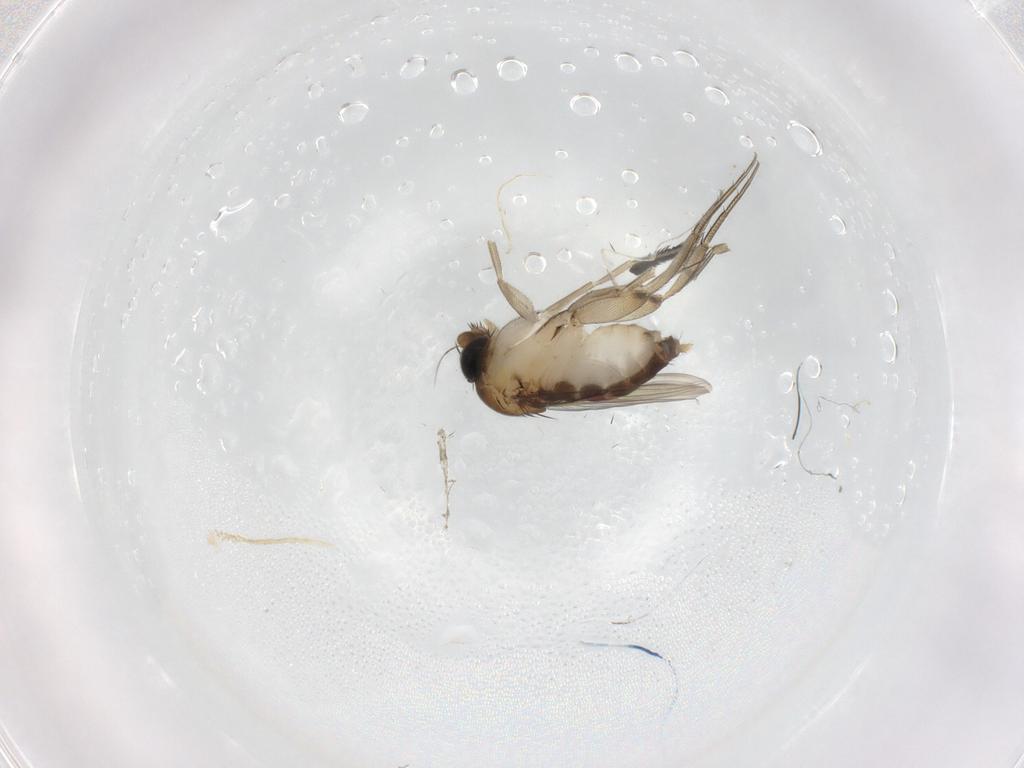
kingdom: Animalia
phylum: Arthropoda
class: Insecta
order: Diptera
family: Phoridae
